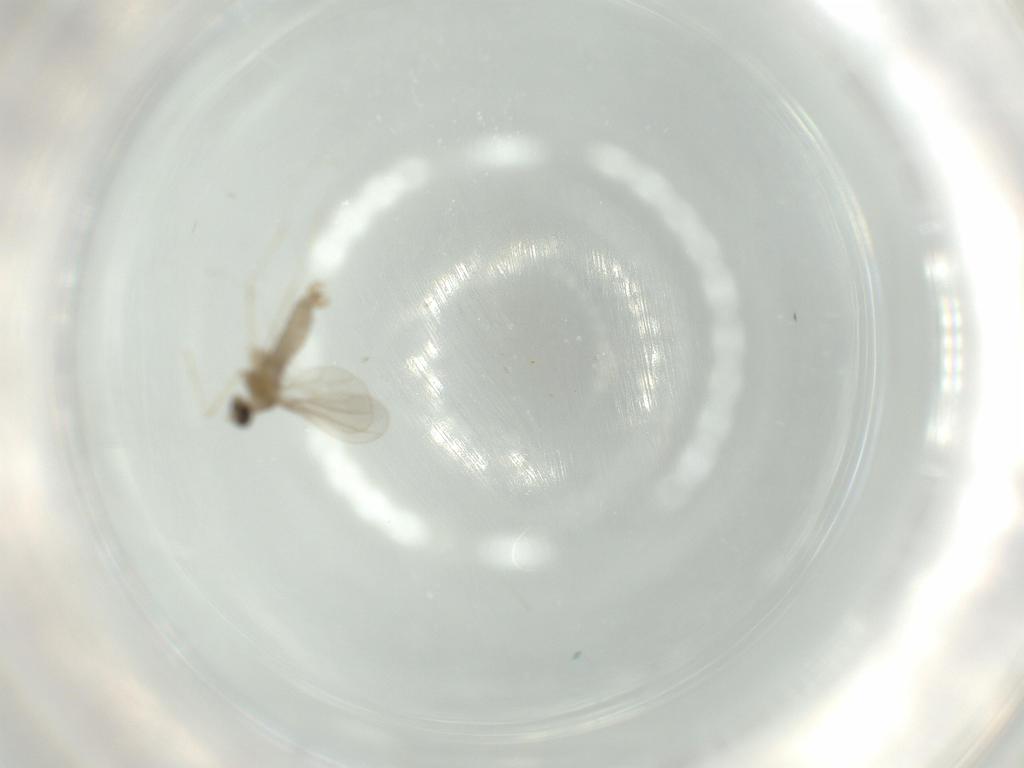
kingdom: Animalia
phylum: Arthropoda
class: Insecta
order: Diptera
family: Cecidomyiidae
